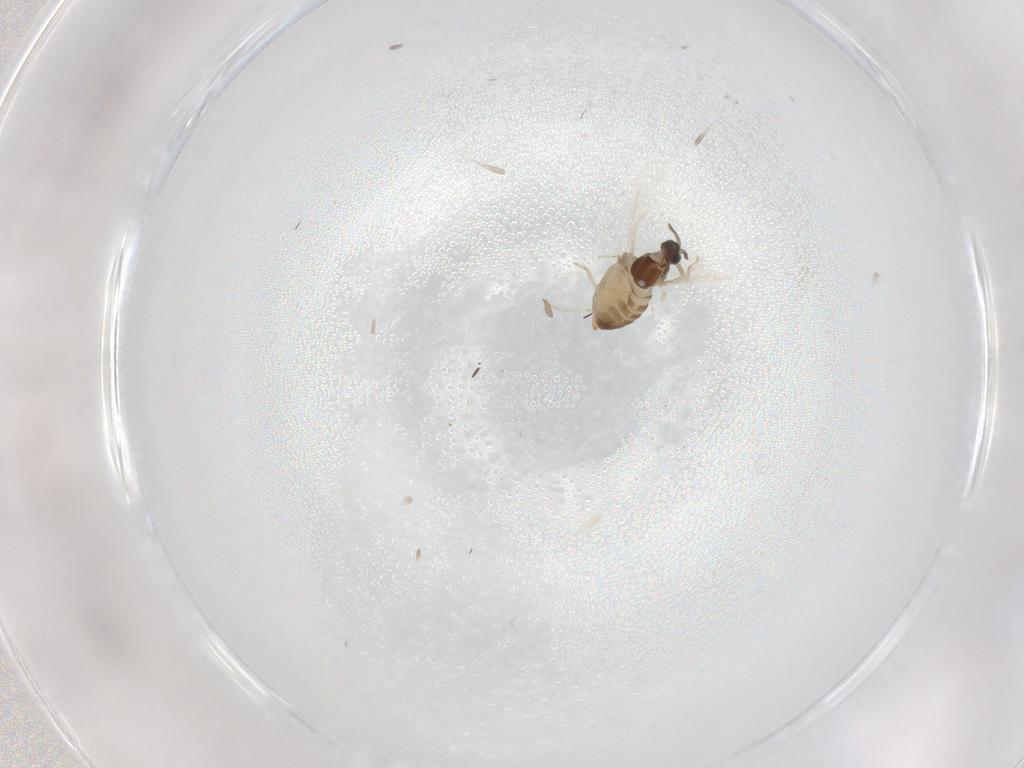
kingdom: Animalia
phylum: Arthropoda
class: Insecta
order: Diptera
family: Cecidomyiidae
